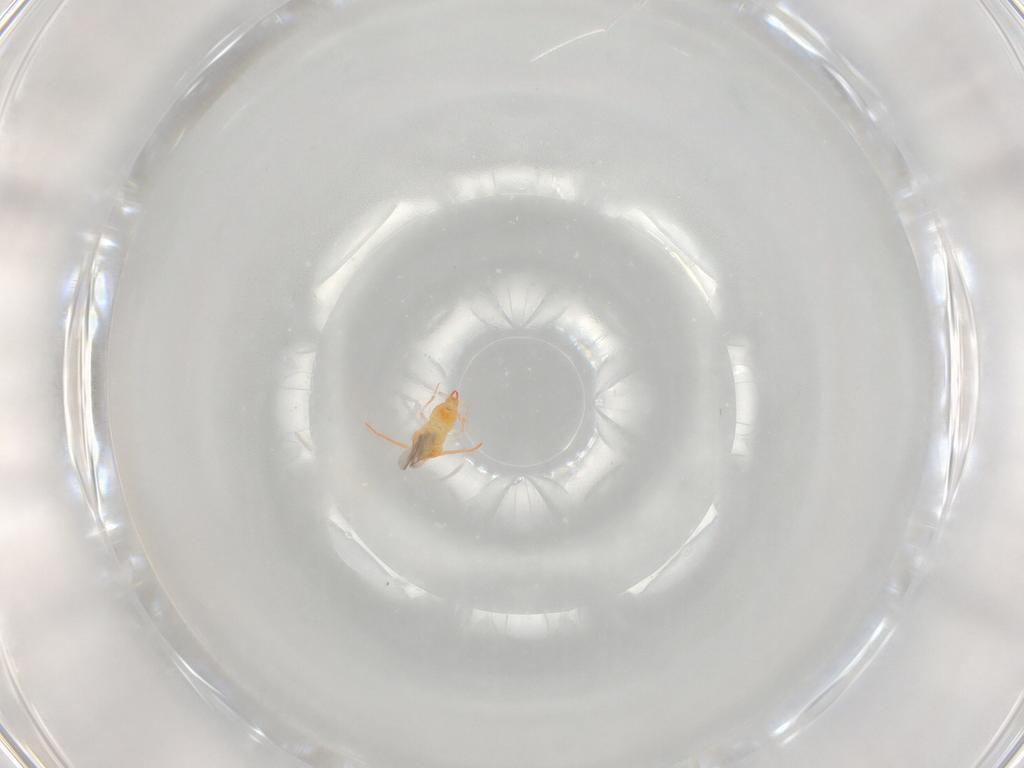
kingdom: Animalia
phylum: Arthropoda
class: Insecta
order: Hemiptera
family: Aleyrodidae
